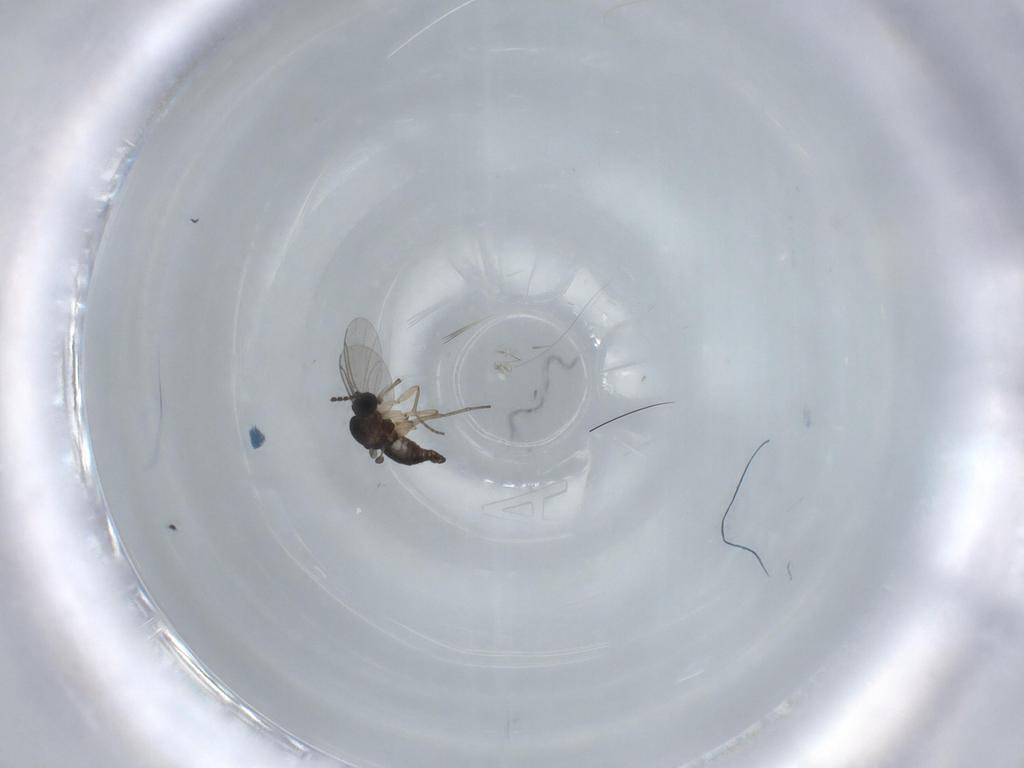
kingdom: Animalia
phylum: Arthropoda
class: Insecta
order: Diptera
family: Sciaridae
